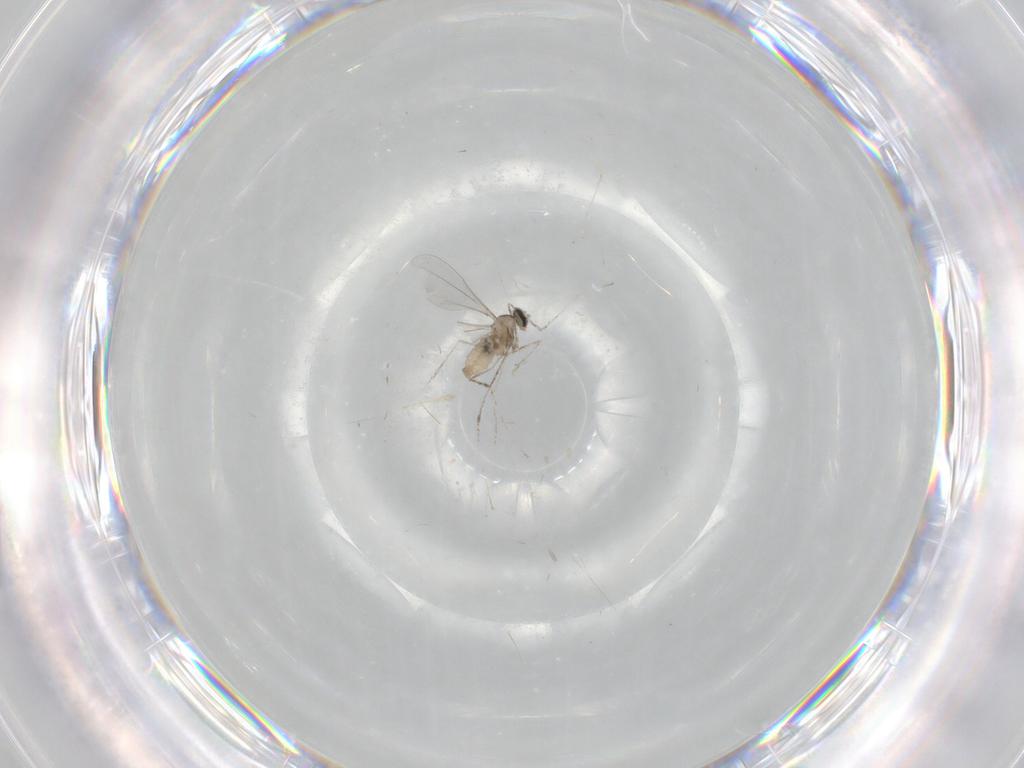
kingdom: Animalia
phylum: Arthropoda
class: Insecta
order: Diptera
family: Cecidomyiidae
